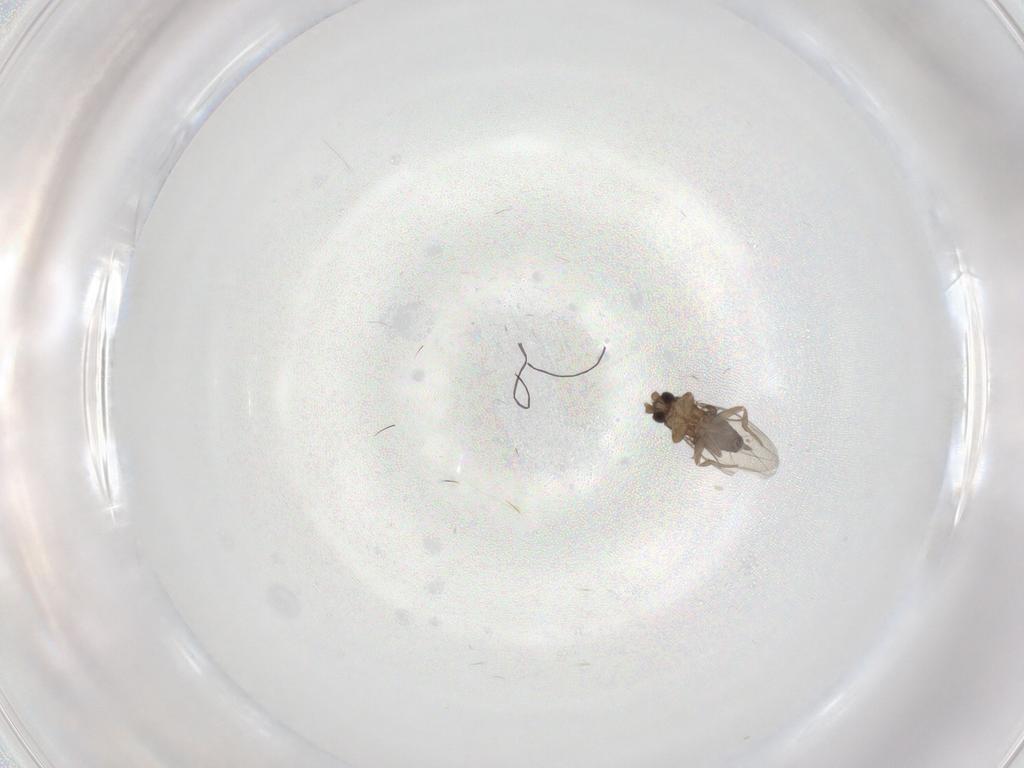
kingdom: Animalia
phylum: Arthropoda
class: Insecta
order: Diptera
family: Phoridae
